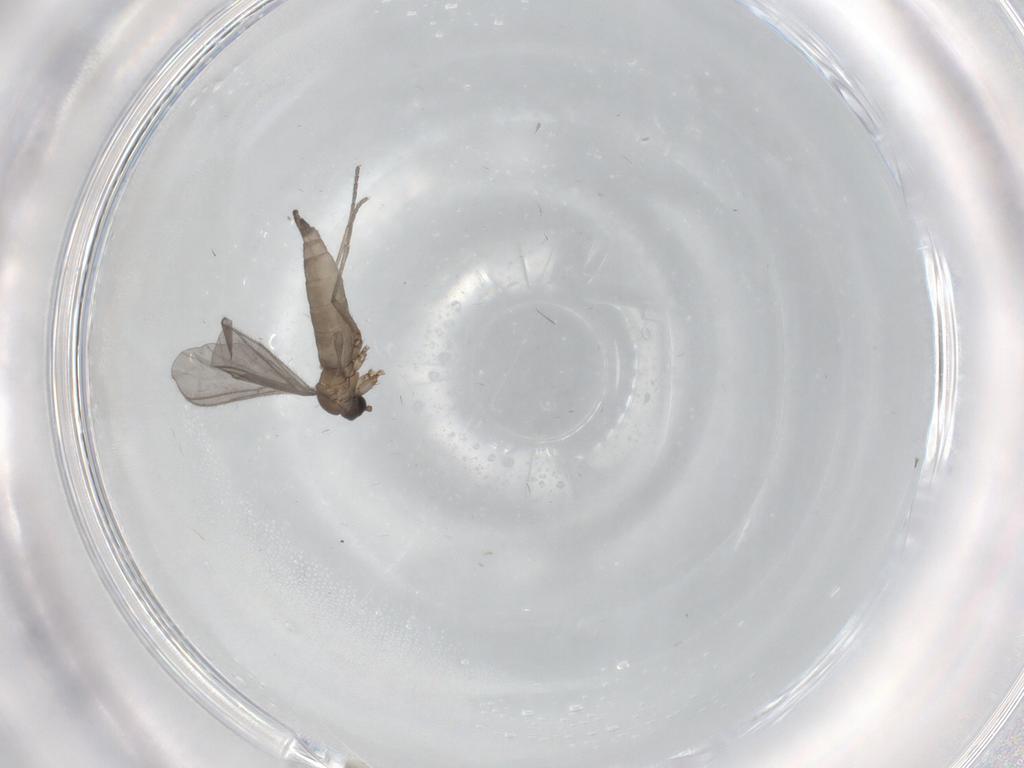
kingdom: Animalia
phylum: Arthropoda
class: Insecta
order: Diptera
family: Sciaridae
